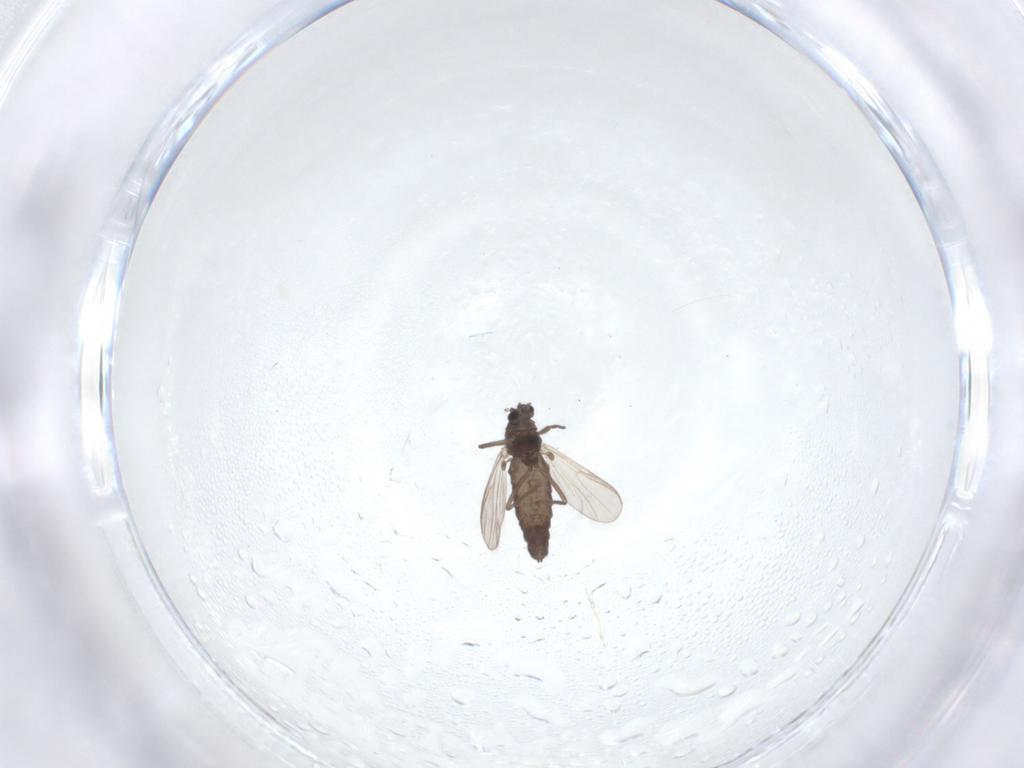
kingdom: Animalia
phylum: Arthropoda
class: Insecta
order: Diptera
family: Chironomidae
